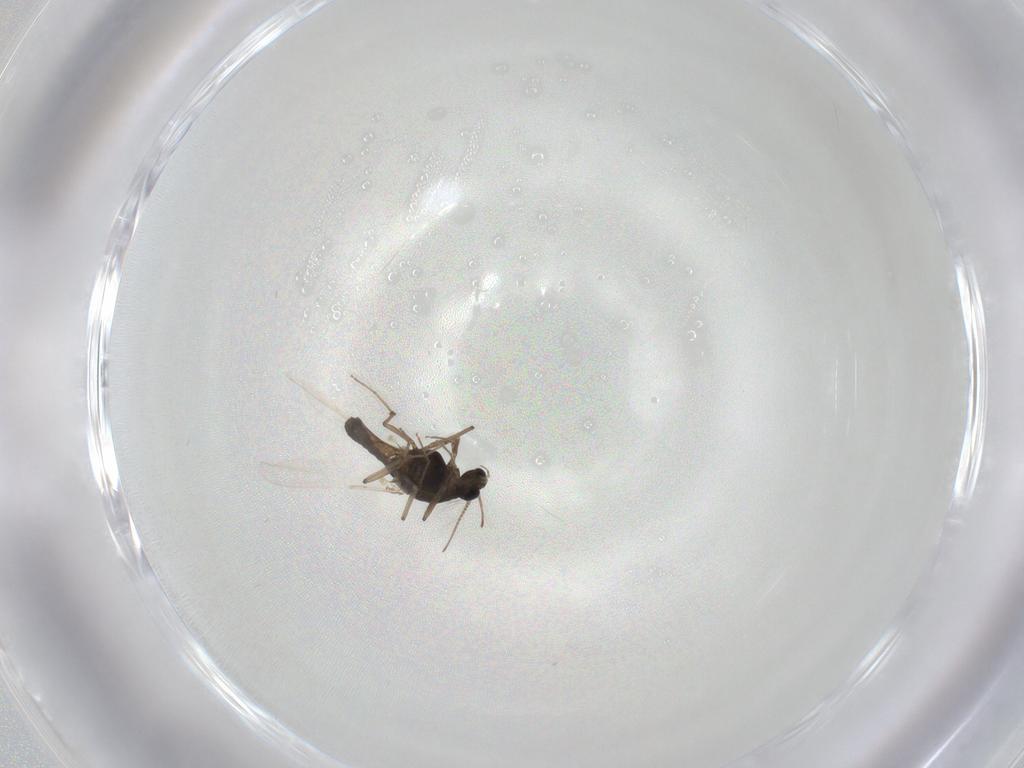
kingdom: Animalia
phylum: Arthropoda
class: Insecta
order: Diptera
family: Chironomidae
